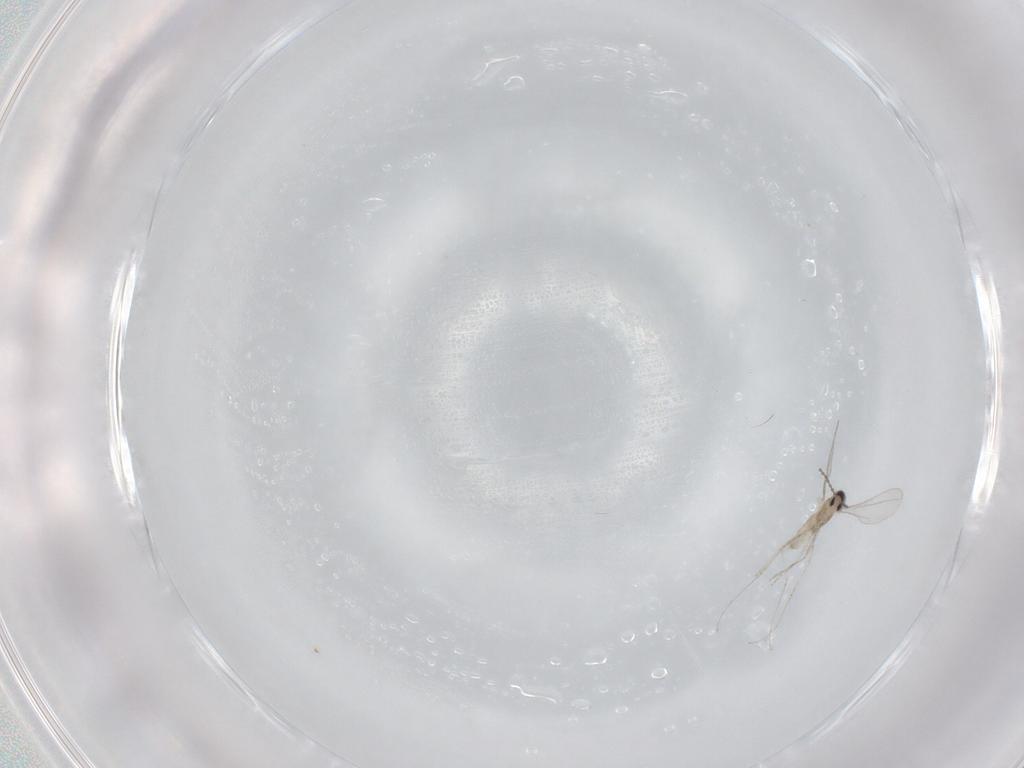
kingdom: Animalia
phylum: Arthropoda
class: Insecta
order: Diptera
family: Cecidomyiidae
